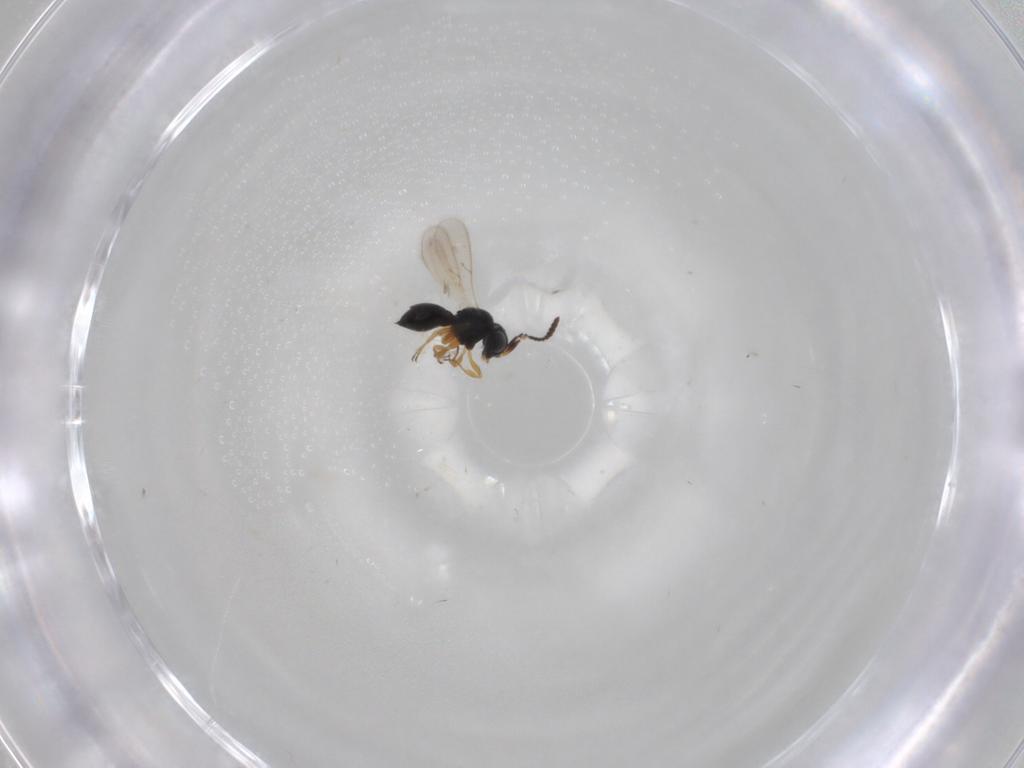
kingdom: Animalia
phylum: Arthropoda
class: Insecta
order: Hymenoptera
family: Scelionidae
